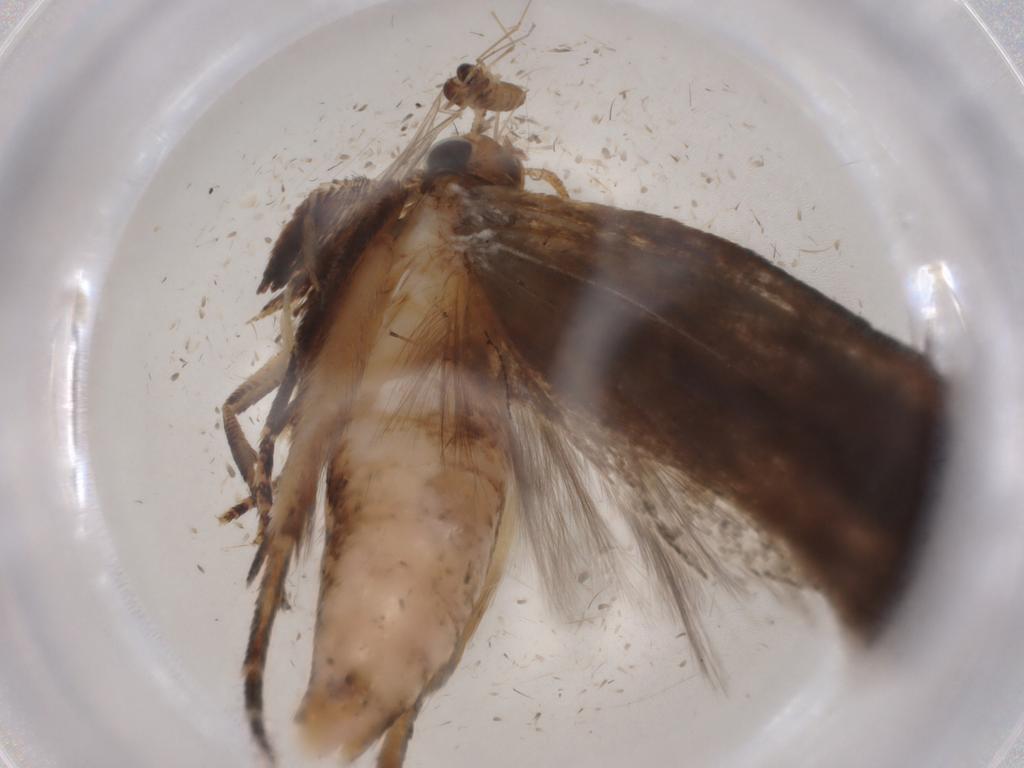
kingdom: Animalia
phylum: Arthropoda
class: Insecta
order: Lepidoptera
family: Gelechiidae
